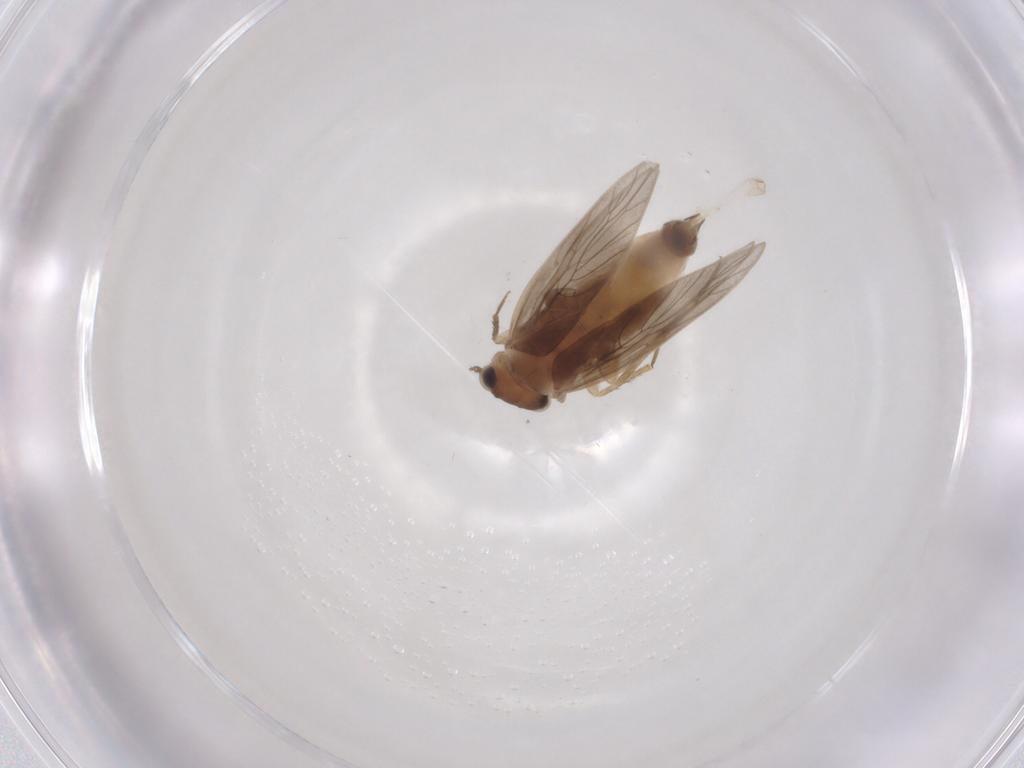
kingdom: Animalia
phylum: Arthropoda
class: Insecta
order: Psocodea
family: Lepidopsocidae
